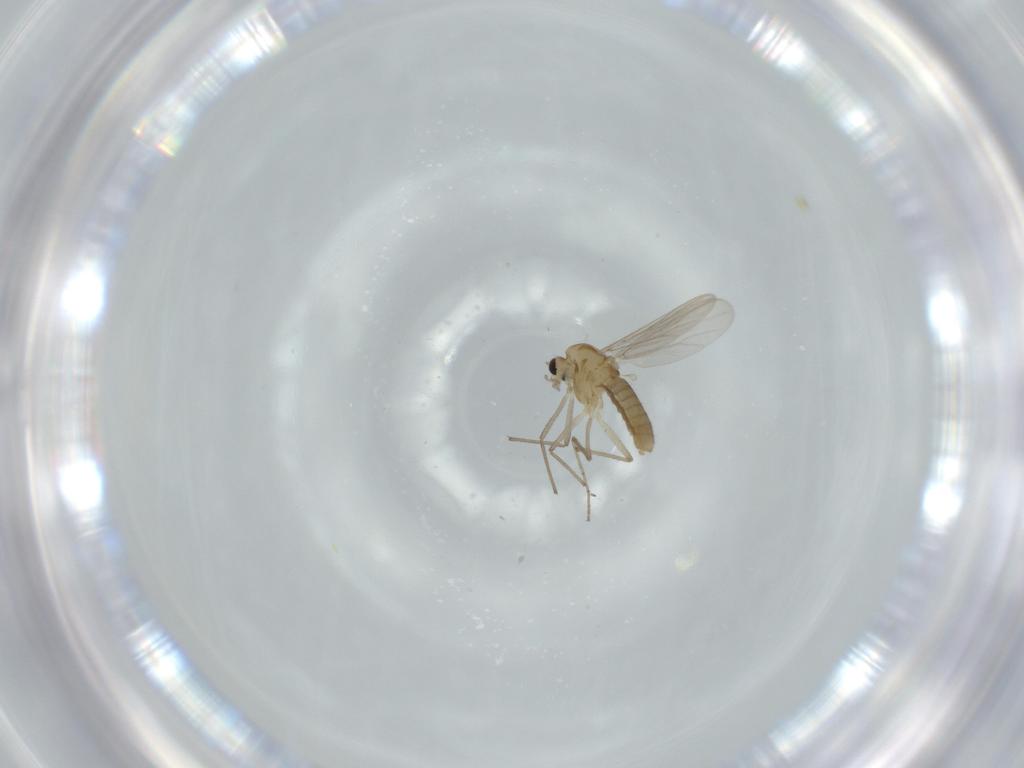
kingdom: Animalia
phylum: Arthropoda
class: Insecta
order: Diptera
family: Chironomidae
